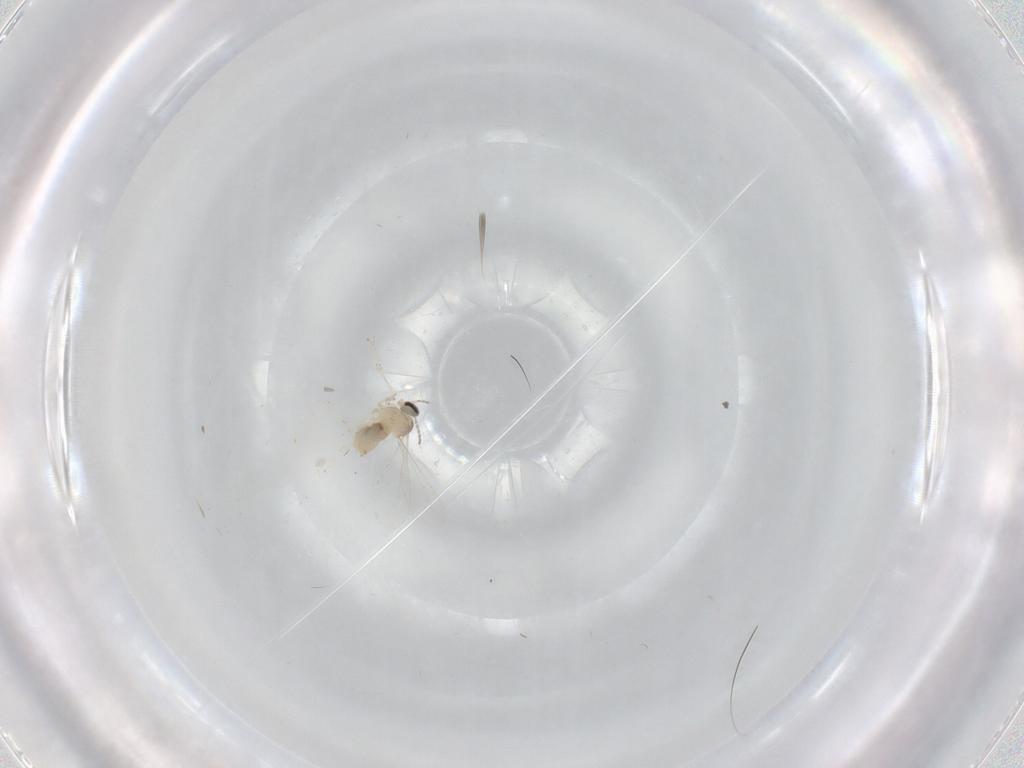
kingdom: Animalia
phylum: Arthropoda
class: Insecta
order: Diptera
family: Cecidomyiidae
